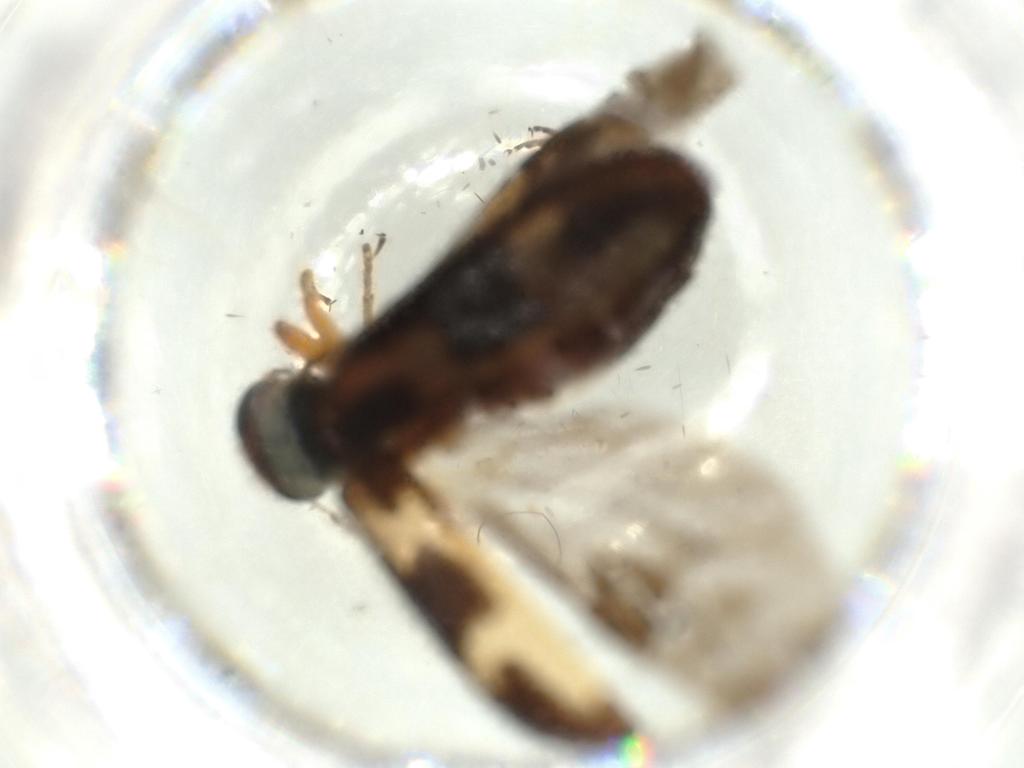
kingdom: Animalia
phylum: Arthropoda
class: Insecta
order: Coleoptera
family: Cleridae
